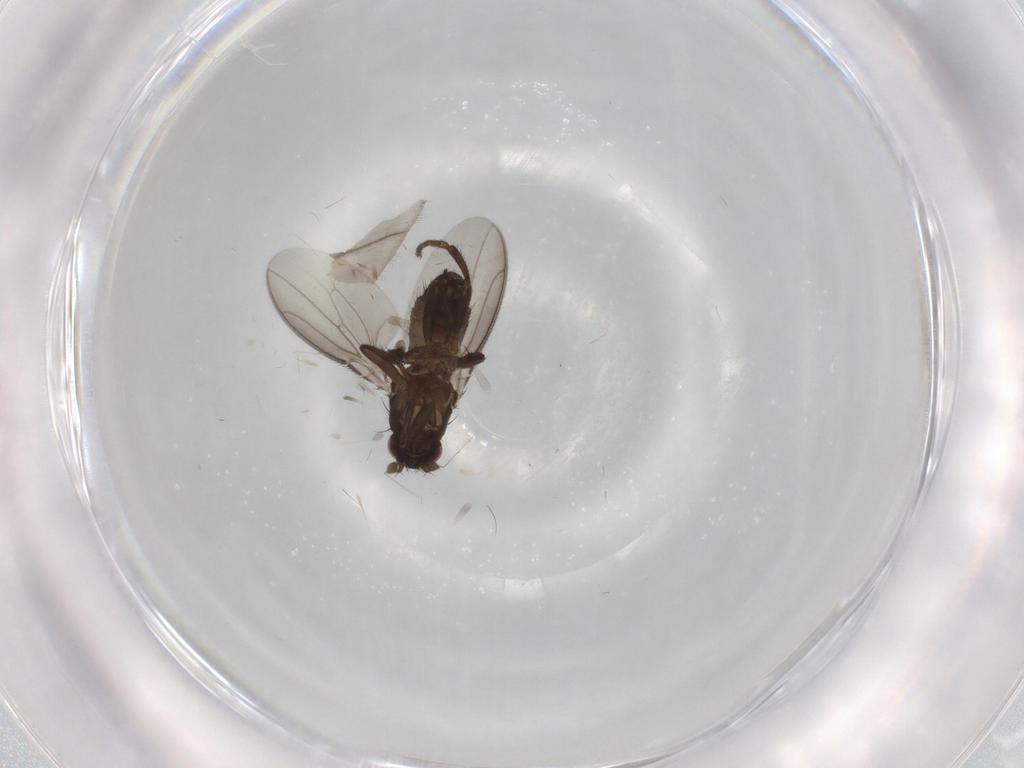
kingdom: Animalia
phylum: Arthropoda
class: Insecta
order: Diptera
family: Sphaeroceridae
